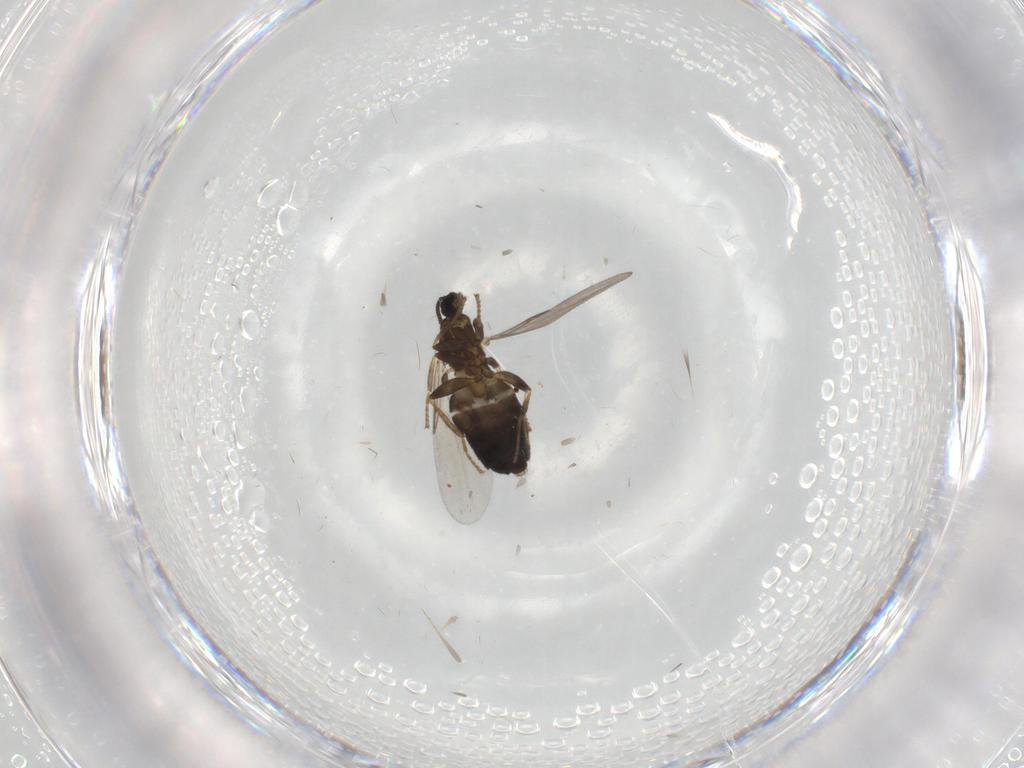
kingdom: Animalia
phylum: Arthropoda
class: Insecta
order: Diptera
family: Scatopsidae
